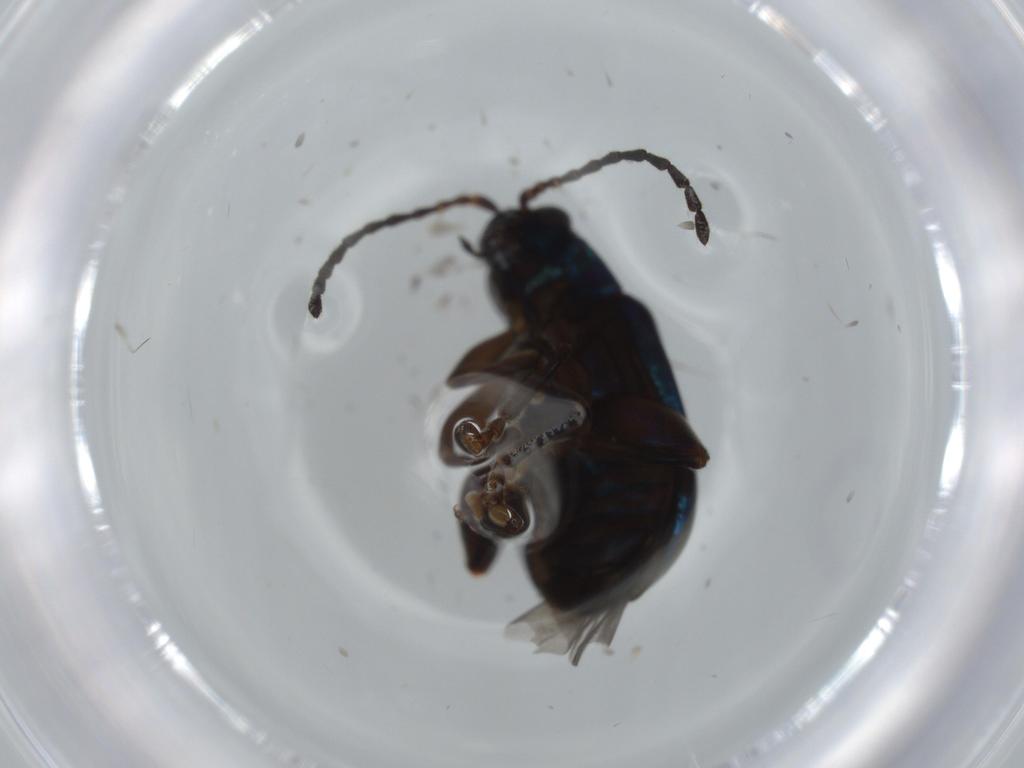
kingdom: Animalia
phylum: Arthropoda
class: Insecta
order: Coleoptera
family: Chrysomelidae
